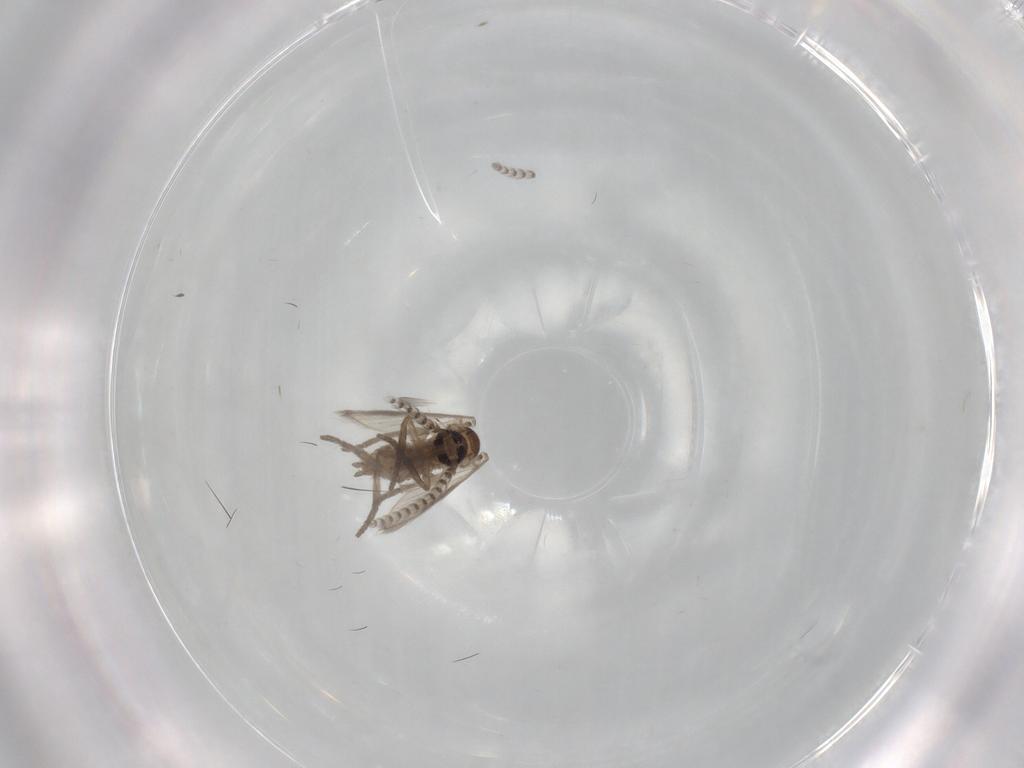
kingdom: Animalia
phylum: Arthropoda
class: Insecta
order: Diptera
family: Psychodidae
